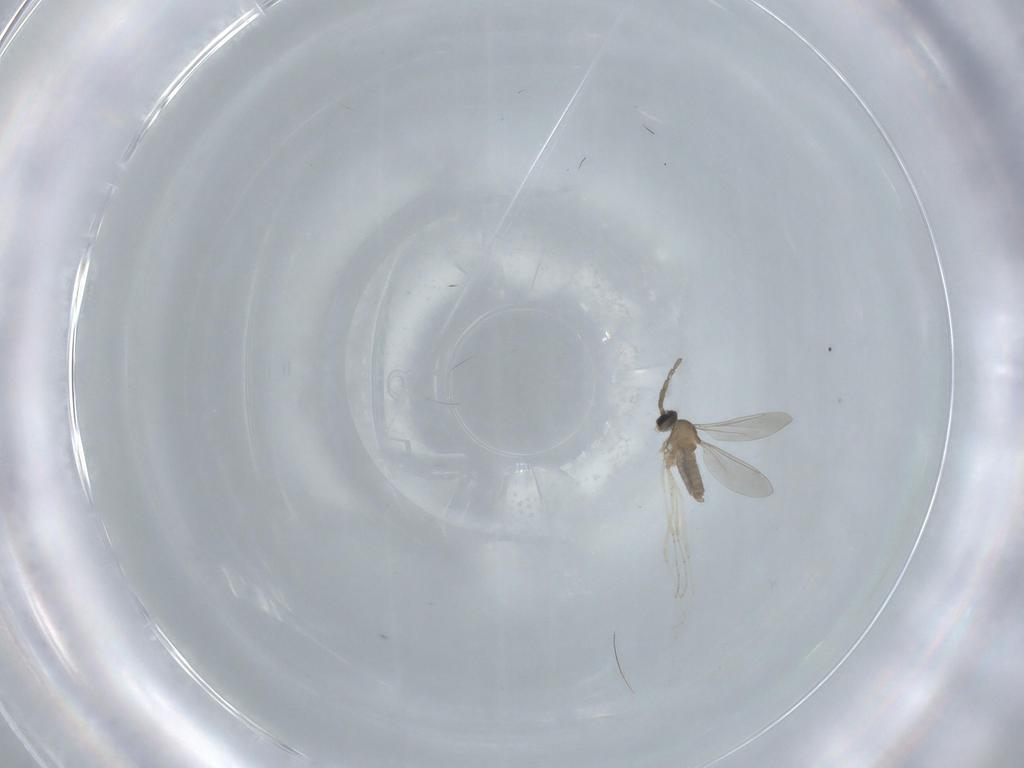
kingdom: Animalia
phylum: Arthropoda
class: Insecta
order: Diptera
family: Cecidomyiidae
